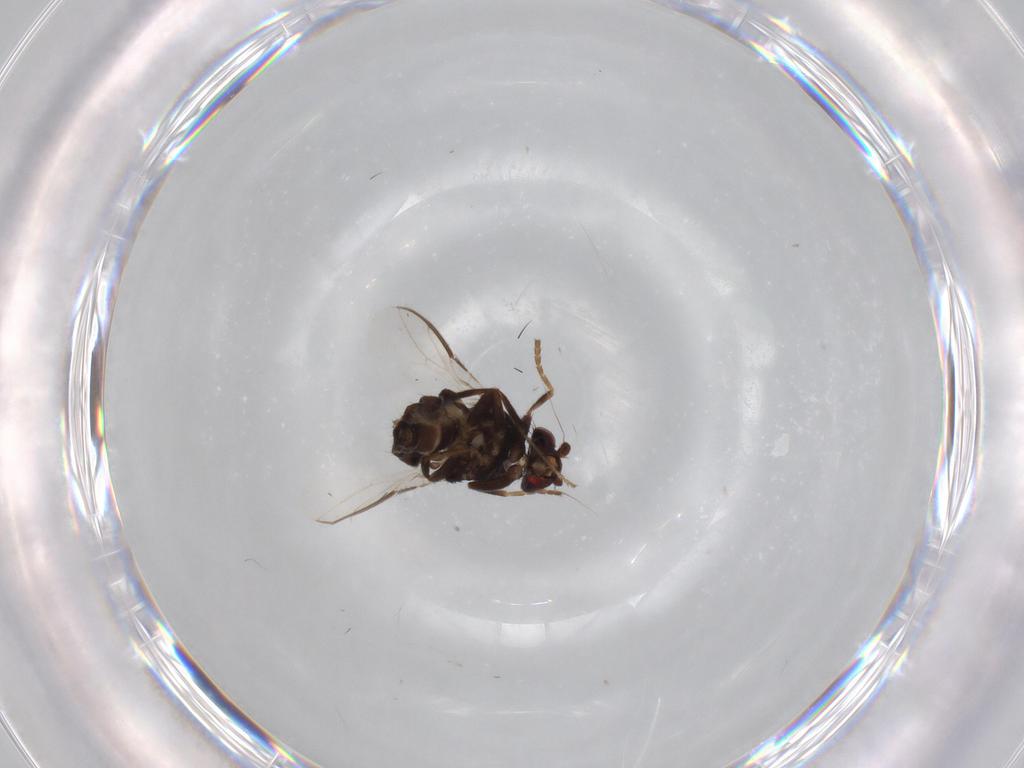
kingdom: Animalia
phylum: Arthropoda
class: Insecta
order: Diptera
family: Sphaeroceridae
